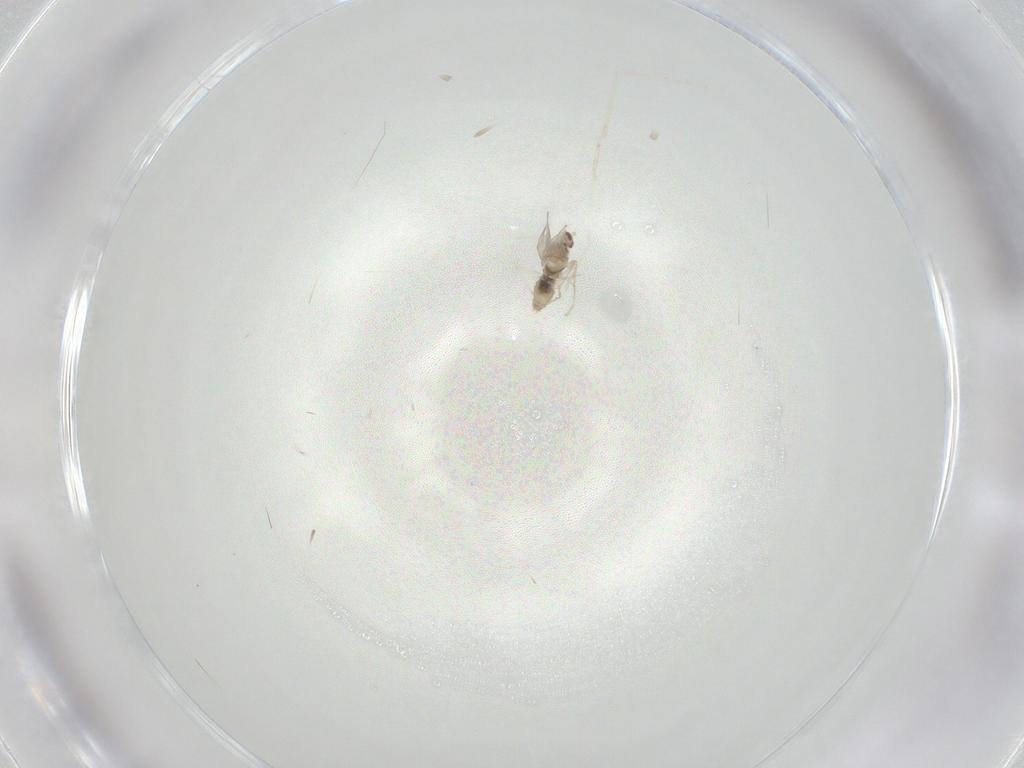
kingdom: Animalia
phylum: Arthropoda
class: Insecta
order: Diptera
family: Cecidomyiidae
